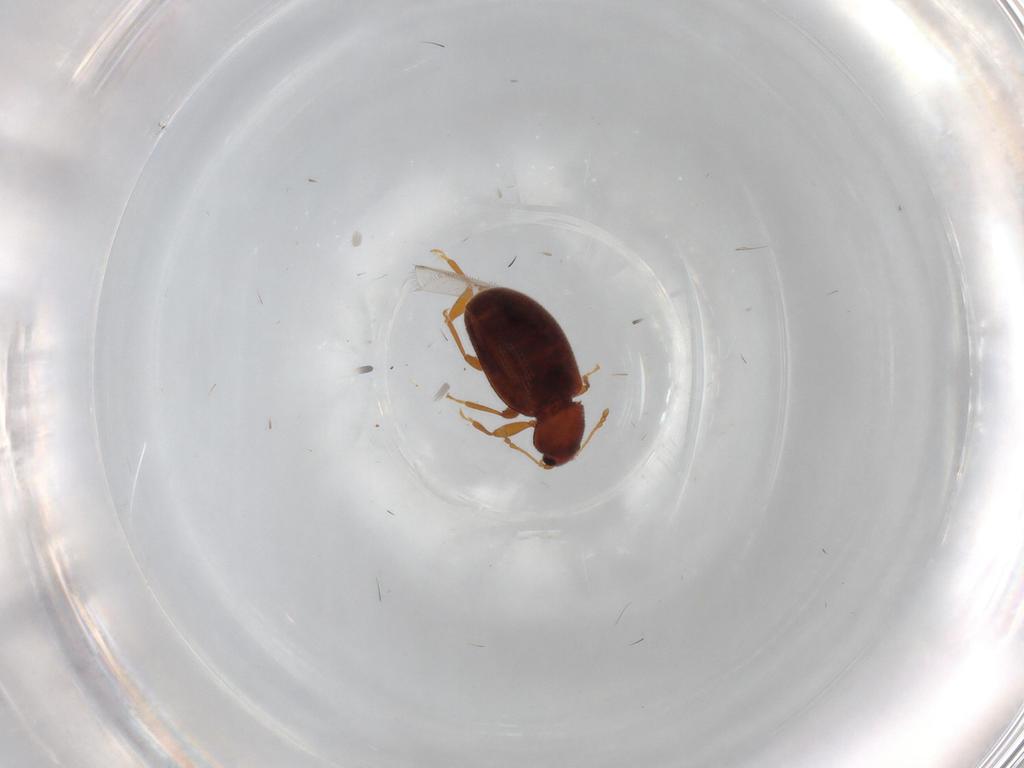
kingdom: Animalia
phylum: Arthropoda
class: Insecta
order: Coleoptera
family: Latridiidae
